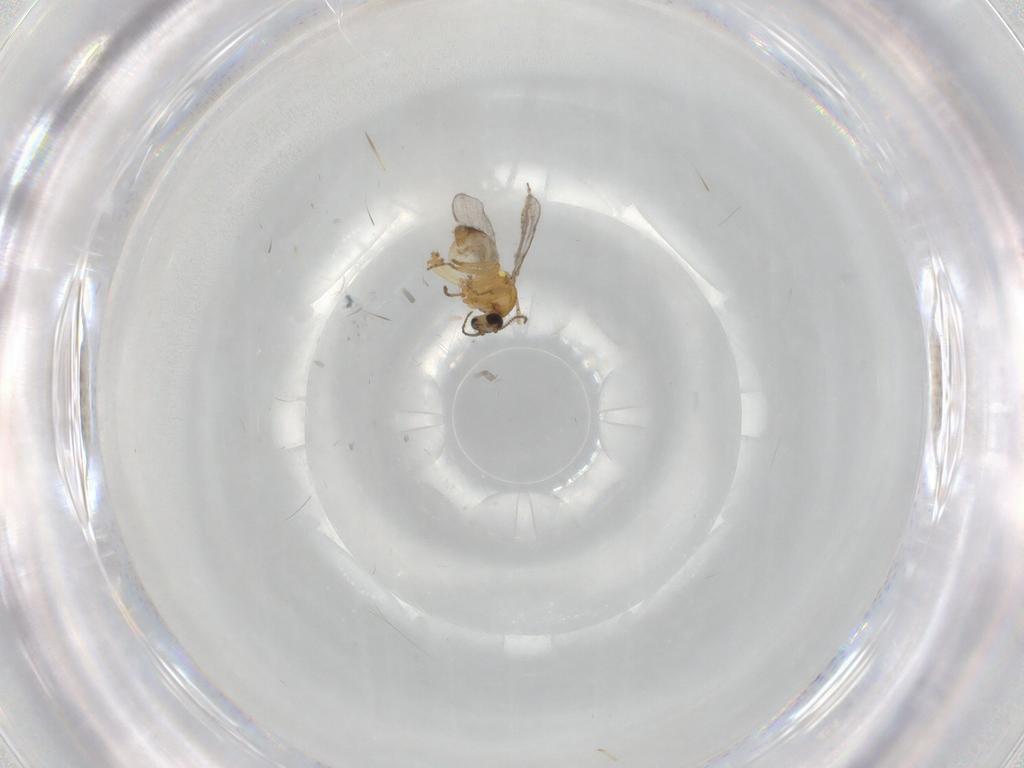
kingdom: Animalia
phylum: Arthropoda
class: Insecta
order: Diptera
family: Ceratopogonidae
